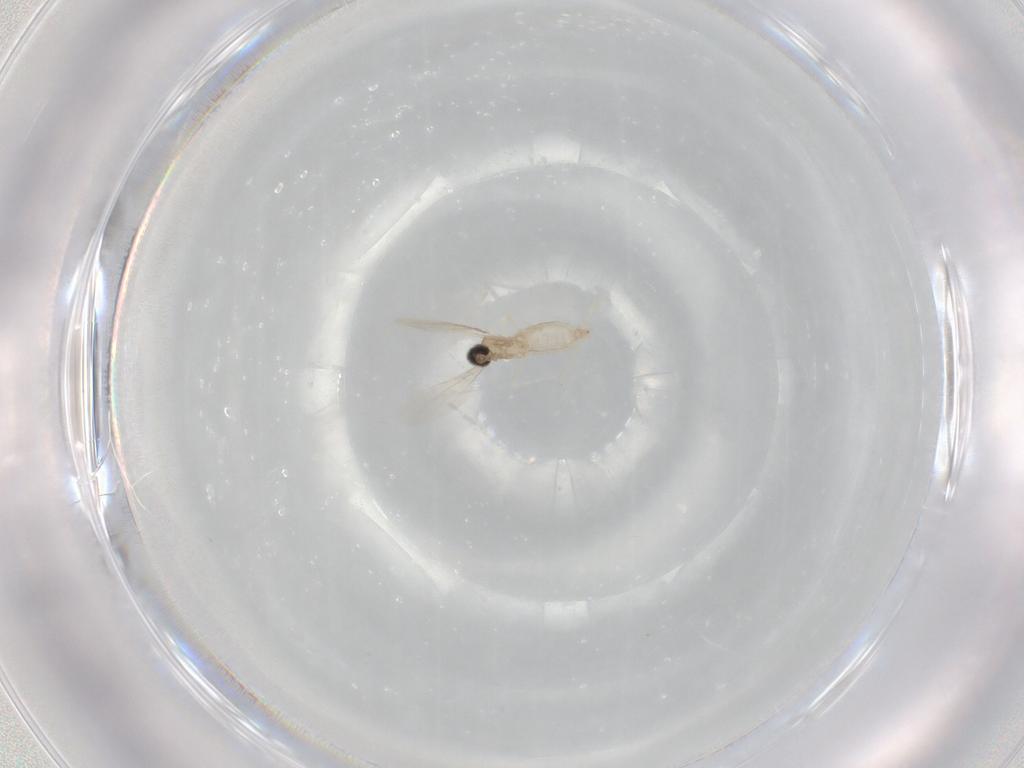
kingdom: Animalia
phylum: Arthropoda
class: Insecta
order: Diptera
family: Cecidomyiidae
